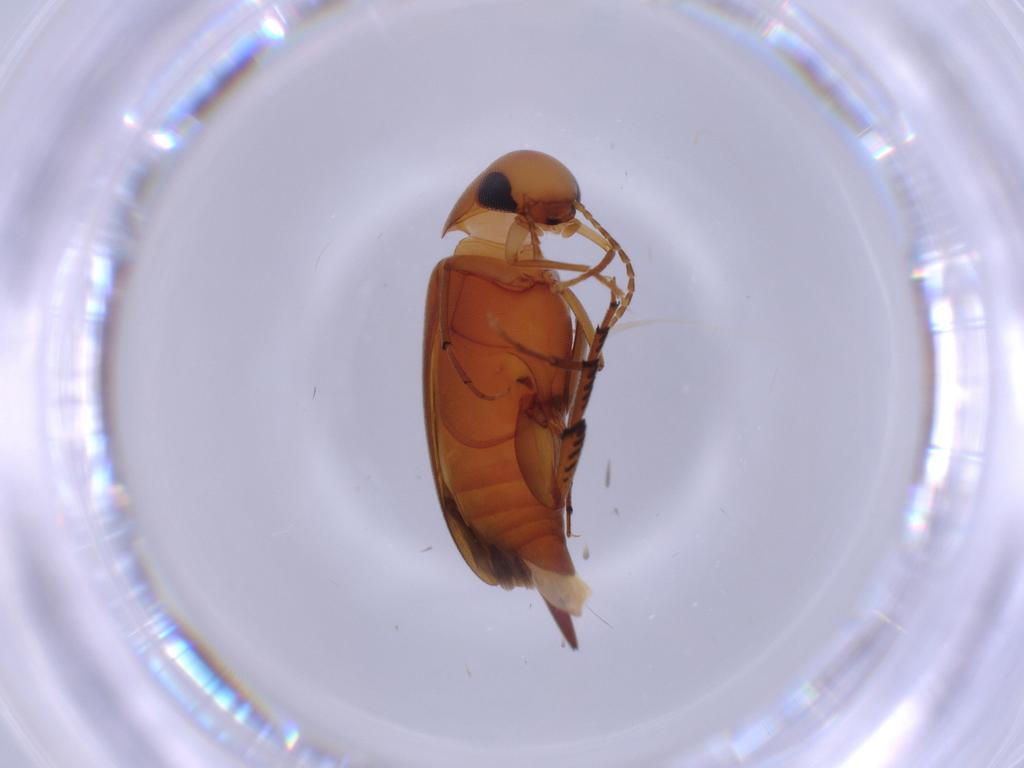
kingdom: Animalia
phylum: Arthropoda
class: Insecta
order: Coleoptera
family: Mordellidae
